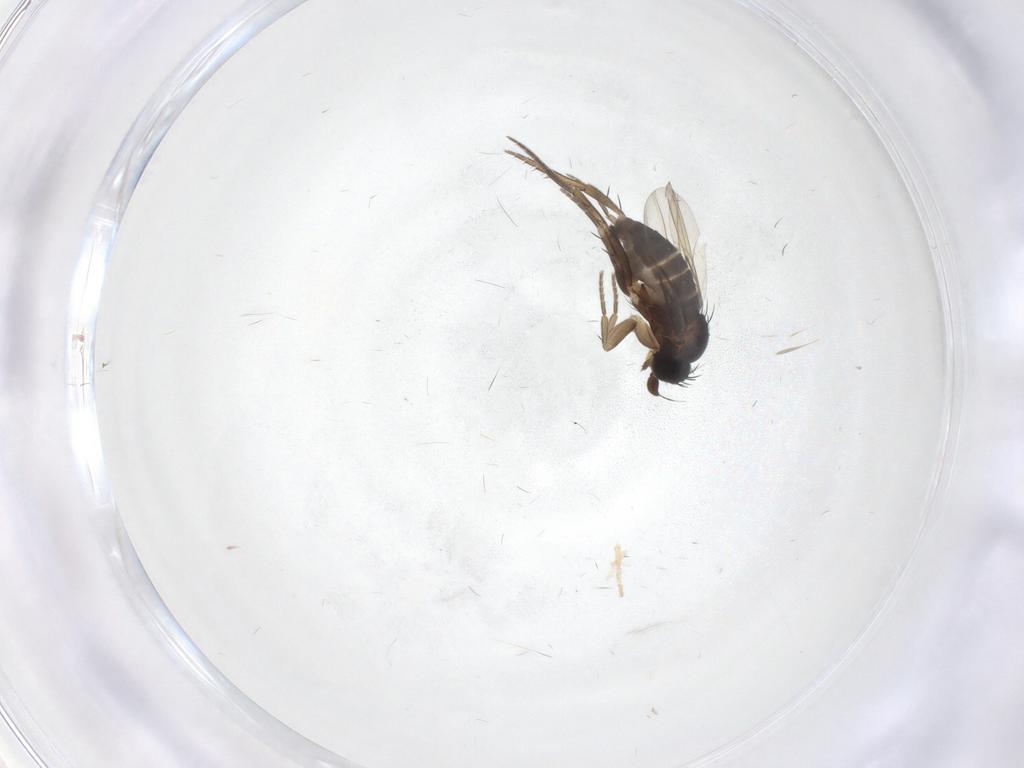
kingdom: Animalia
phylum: Arthropoda
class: Insecta
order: Diptera
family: Phoridae
